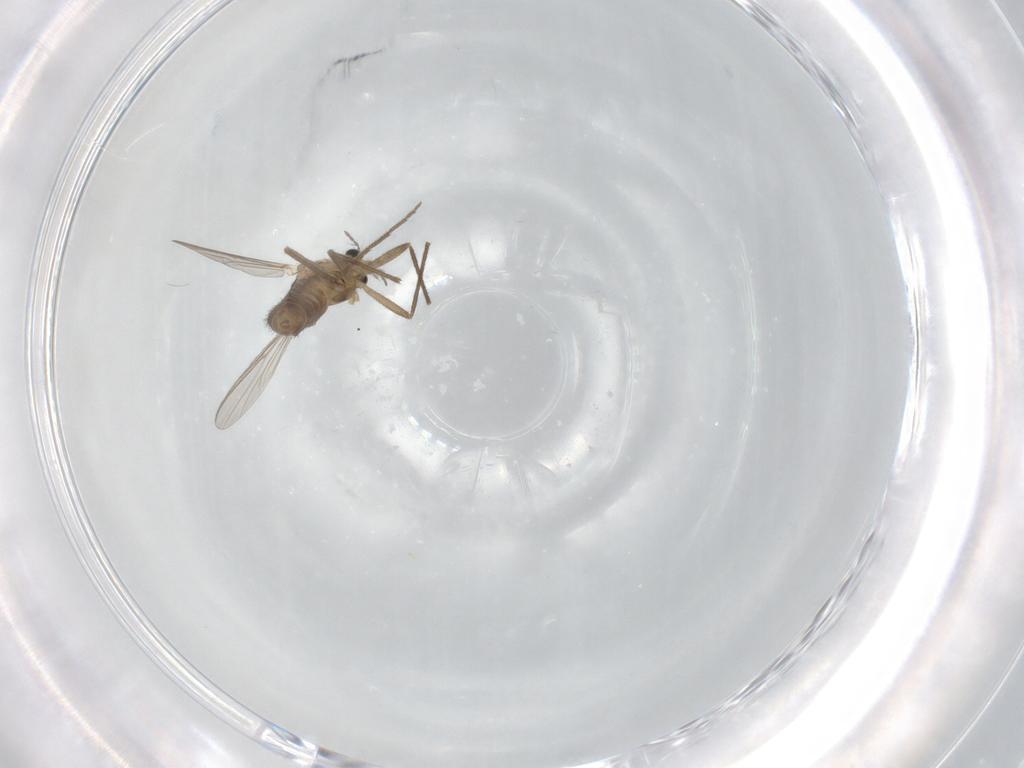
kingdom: Animalia
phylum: Arthropoda
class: Insecta
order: Diptera
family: Chironomidae
